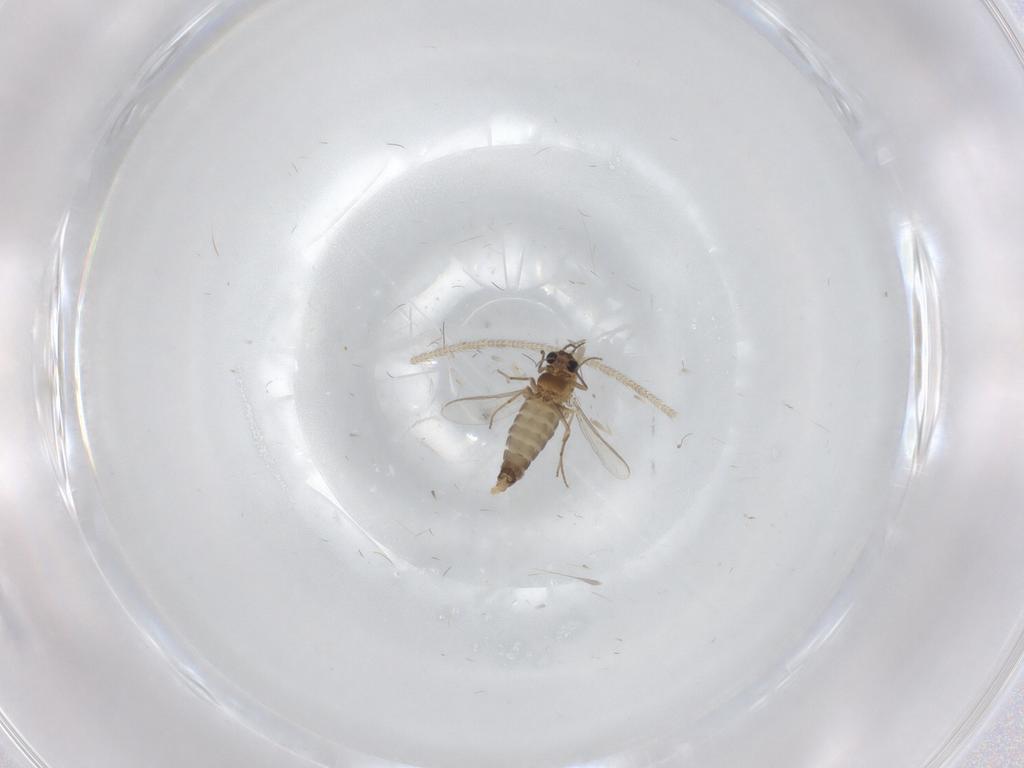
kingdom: Animalia
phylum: Arthropoda
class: Insecta
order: Diptera
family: Chironomidae
